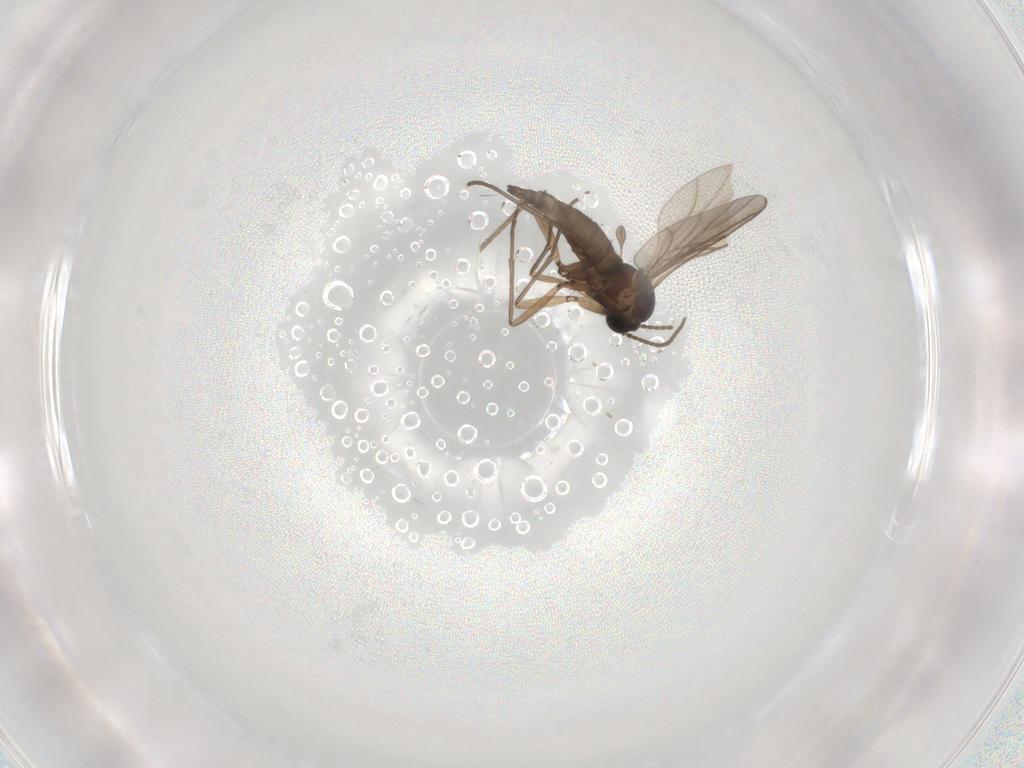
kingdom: Animalia
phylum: Arthropoda
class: Insecta
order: Diptera
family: Sciaridae
